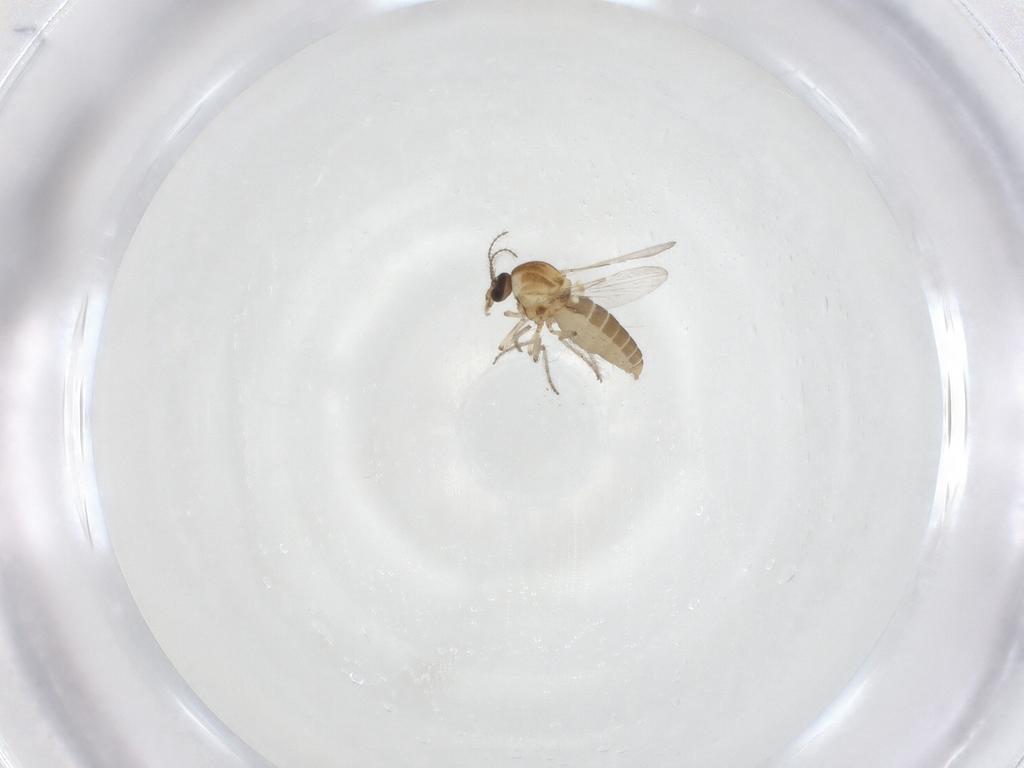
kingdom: Animalia
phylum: Arthropoda
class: Insecta
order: Diptera
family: Ceratopogonidae
